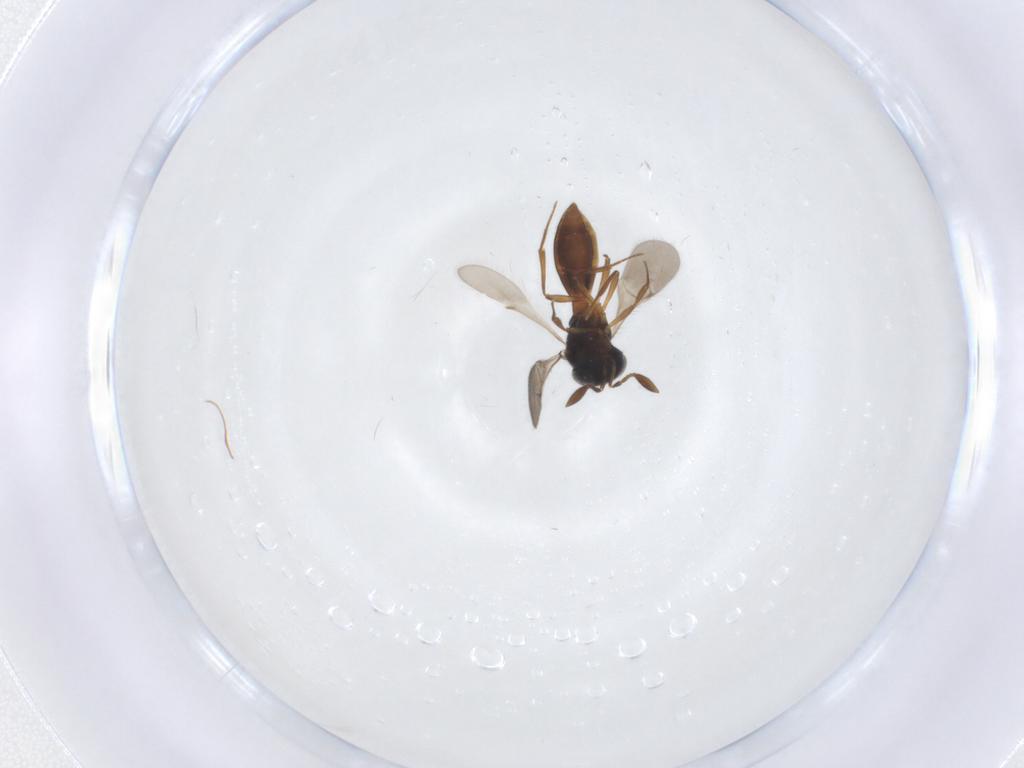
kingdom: Animalia
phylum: Arthropoda
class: Insecta
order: Hymenoptera
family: Scelionidae
